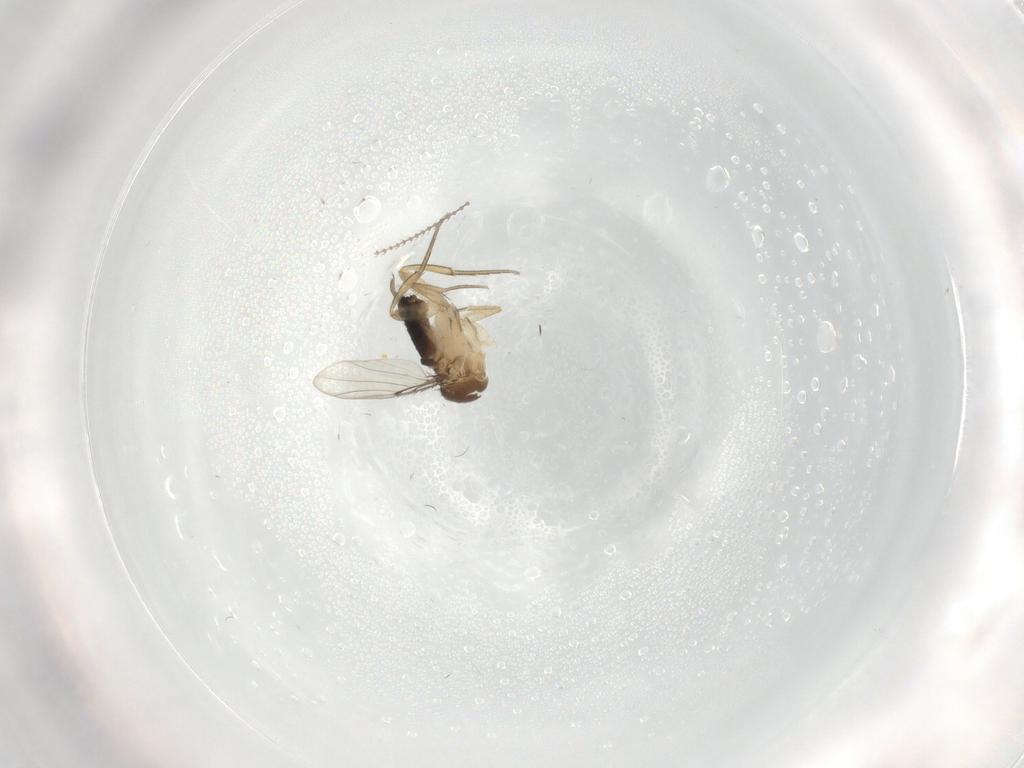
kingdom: Animalia
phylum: Arthropoda
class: Insecta
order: Diptera
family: Cecidomyiidae
